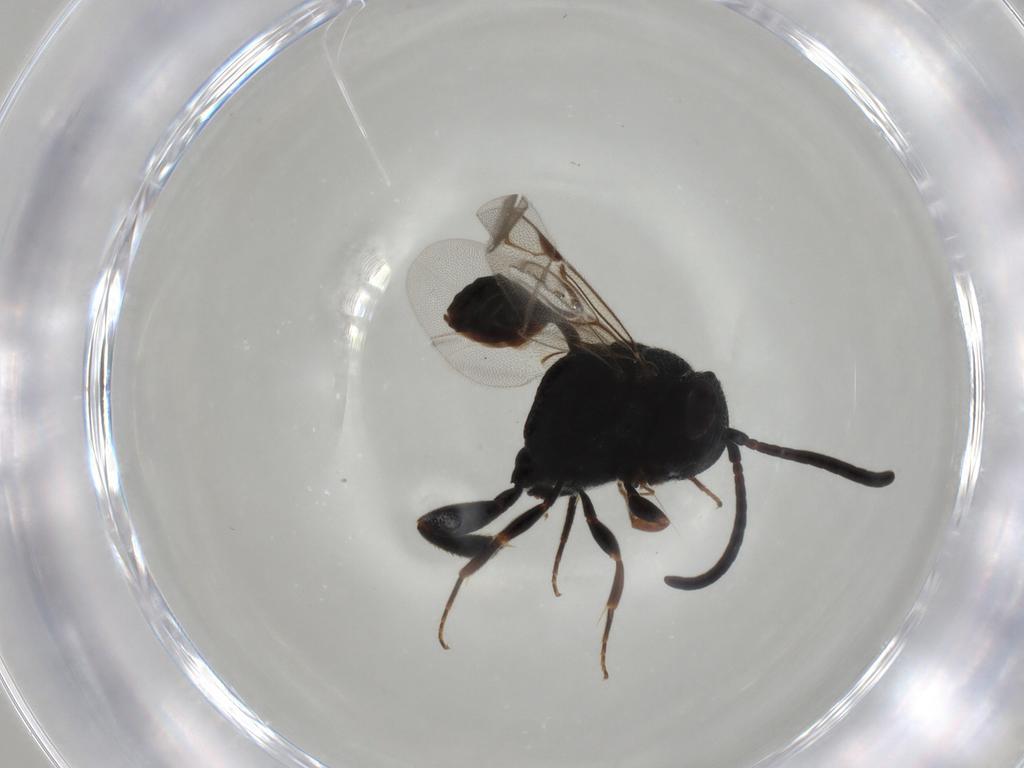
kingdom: Animalia
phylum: Arthropoda
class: Insecta
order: Hymenoptera
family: Evaniidae
